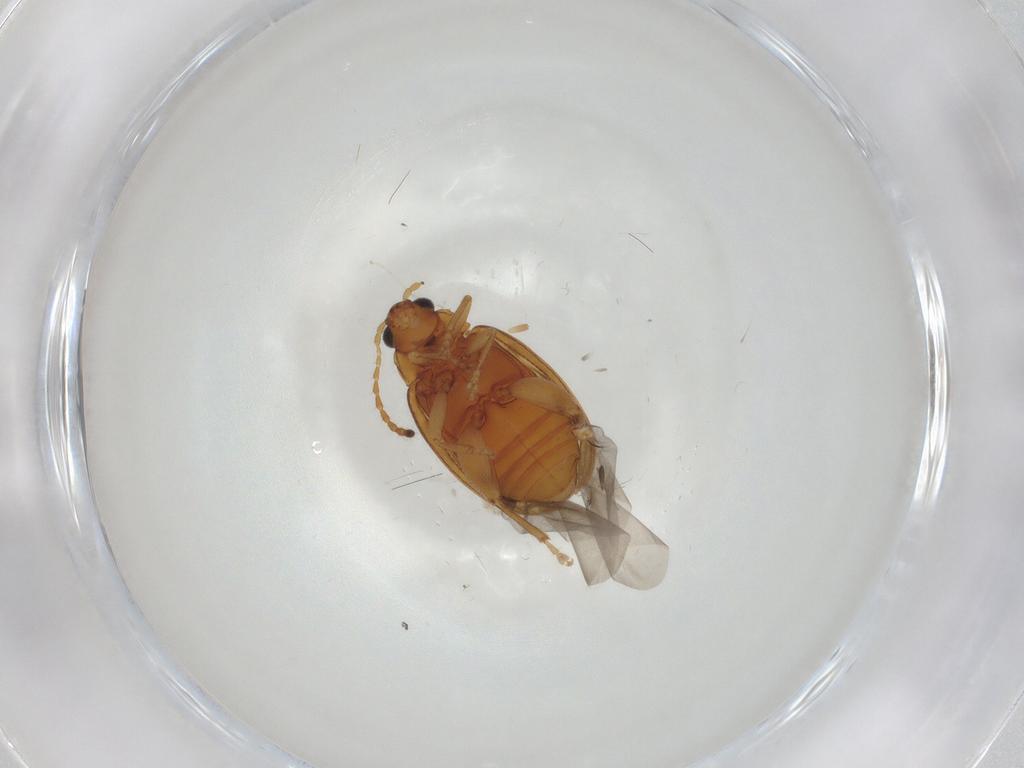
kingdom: Animalia
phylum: Arthropoda
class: Insecta
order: Coleoptera
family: Chrysomelidae
